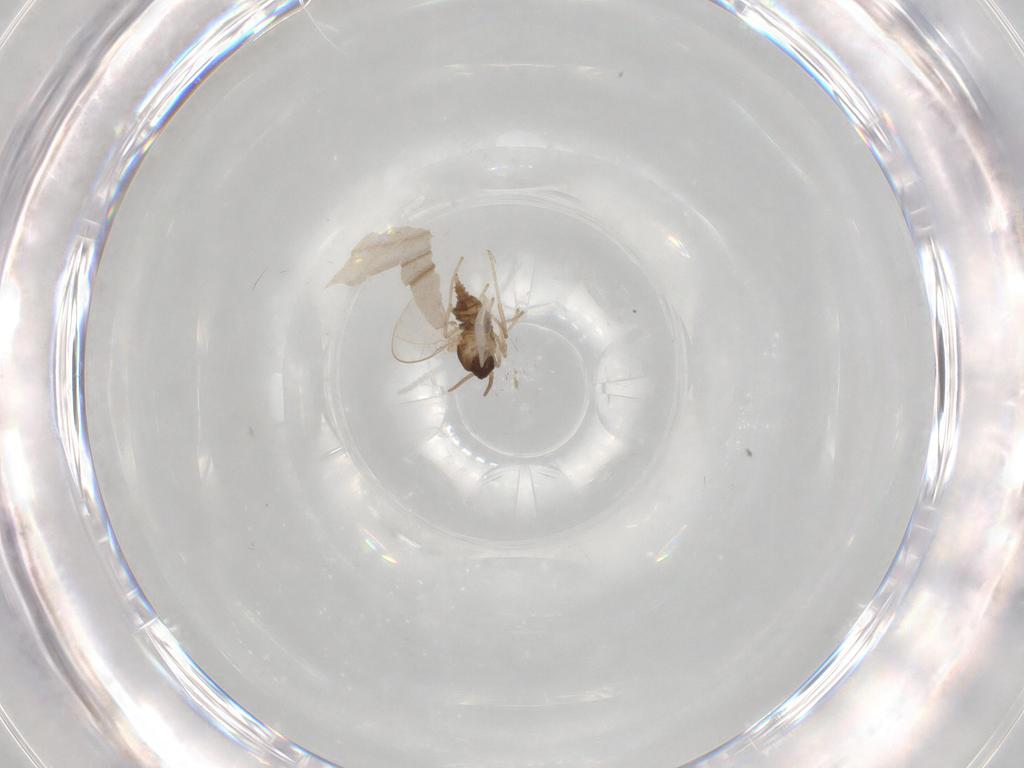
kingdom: Animalia
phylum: Arthropoda
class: Insecta
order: Diptera
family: Cecidomyiidae
